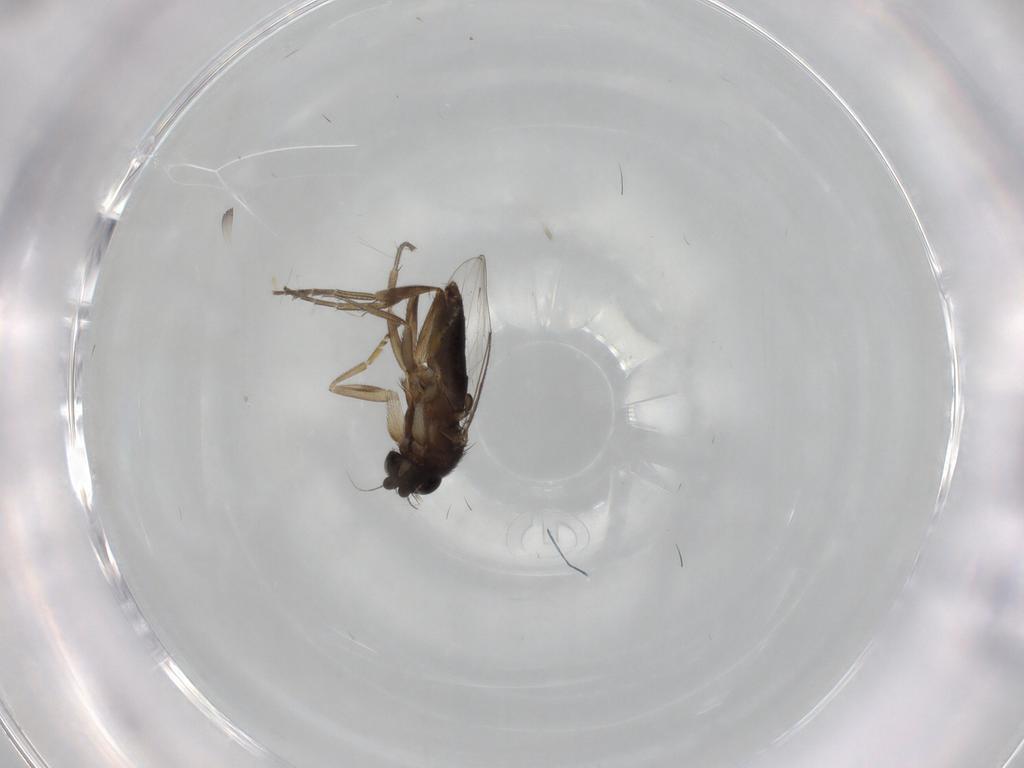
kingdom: Animalia
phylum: Arthropoda
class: Insecta
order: Diptera
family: Phoridae
